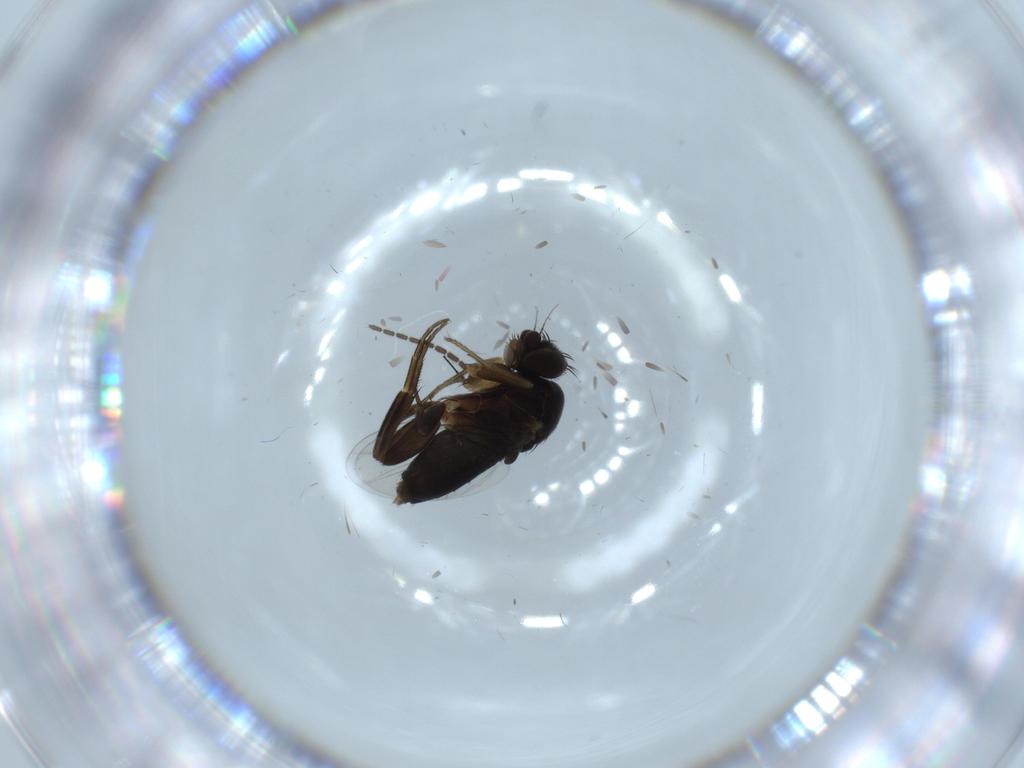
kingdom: Animalia
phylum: Arthropoda
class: Insecta
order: Diptera
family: Phoridae
